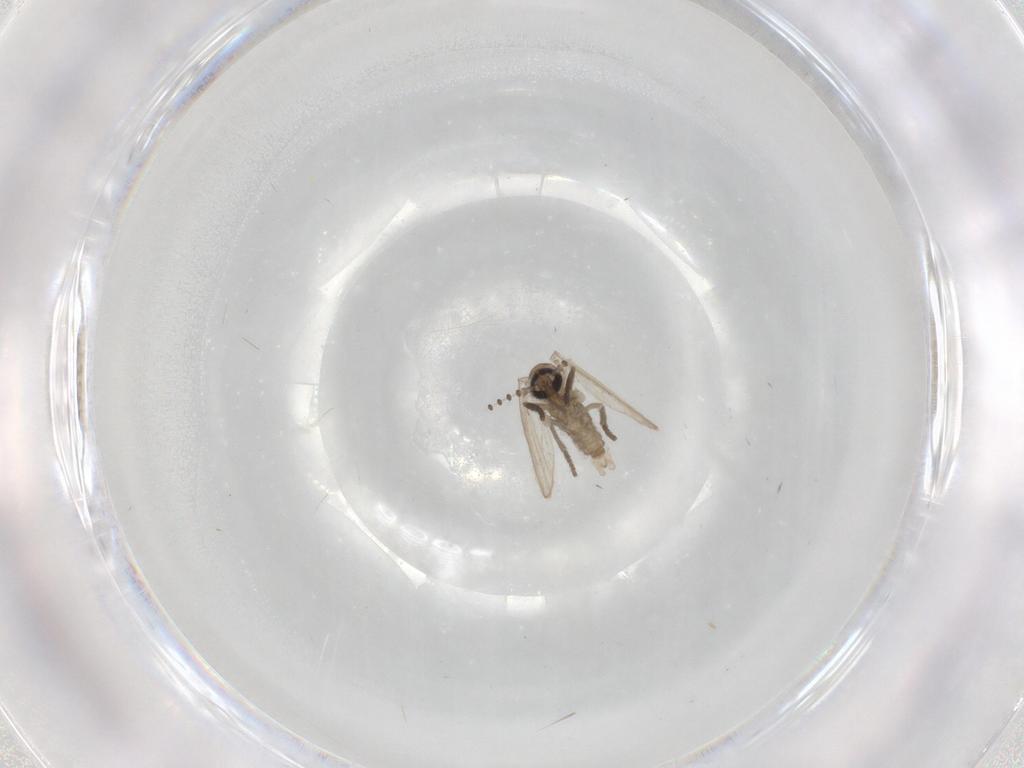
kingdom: Animalia
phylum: Arthropoda
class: Insecta
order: Diptera
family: Psychodidae
